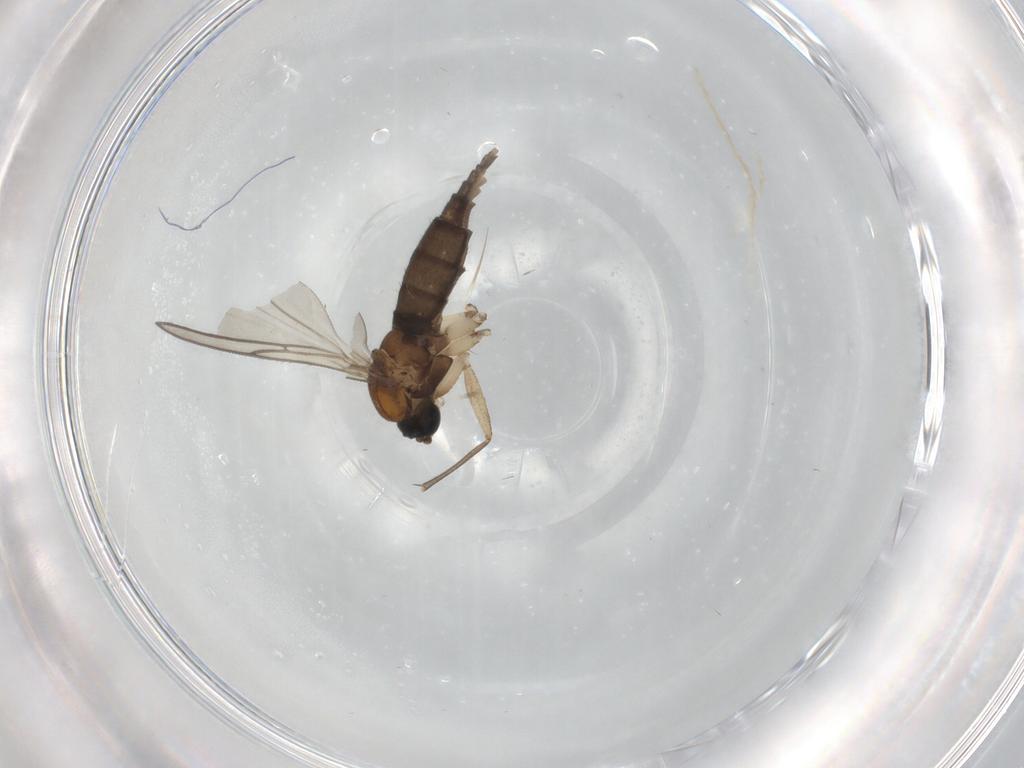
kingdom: Animalia
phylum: Arthropoda
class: Insecta
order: Diptera
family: Sciaridae
